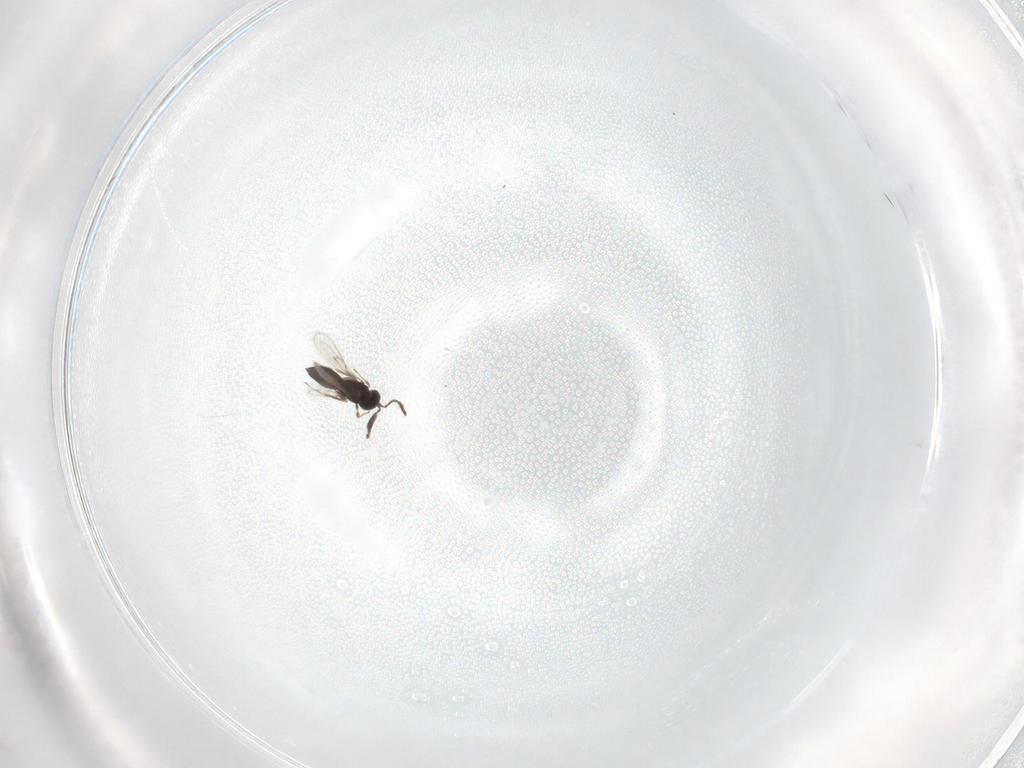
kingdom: Animalia
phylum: Arthropoda
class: Insecta
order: Hymenoptera
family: Scelionidae
